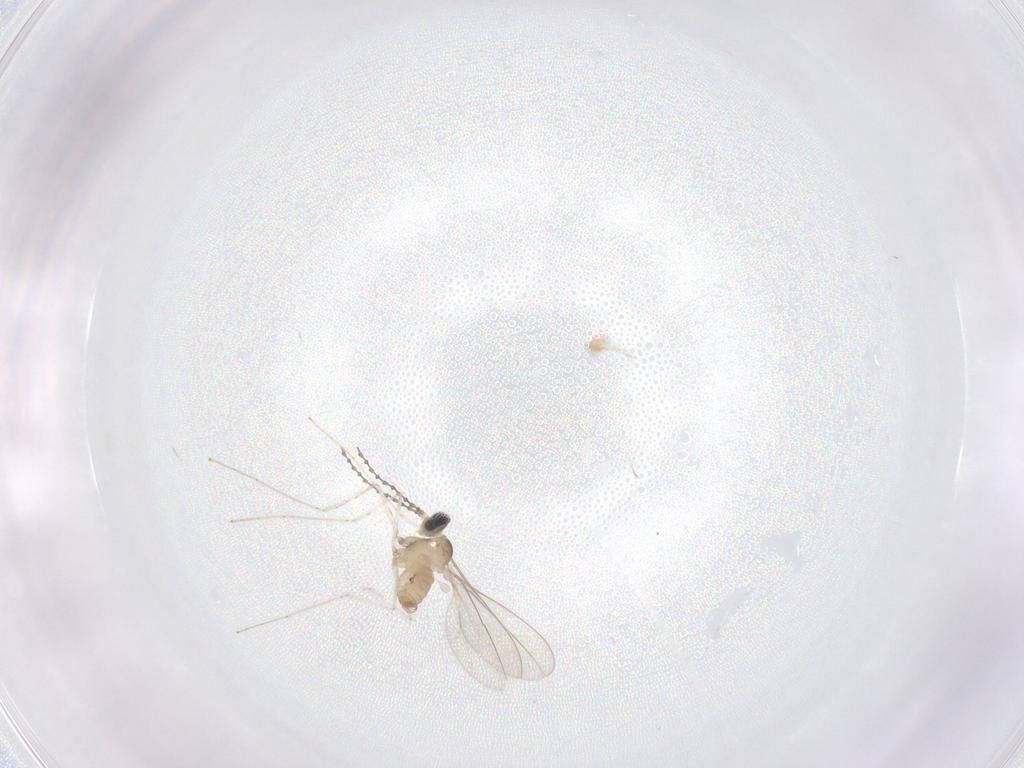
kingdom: Animalia
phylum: Arthropoda
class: Insecta
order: Diptera
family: Cecidomyiidae
